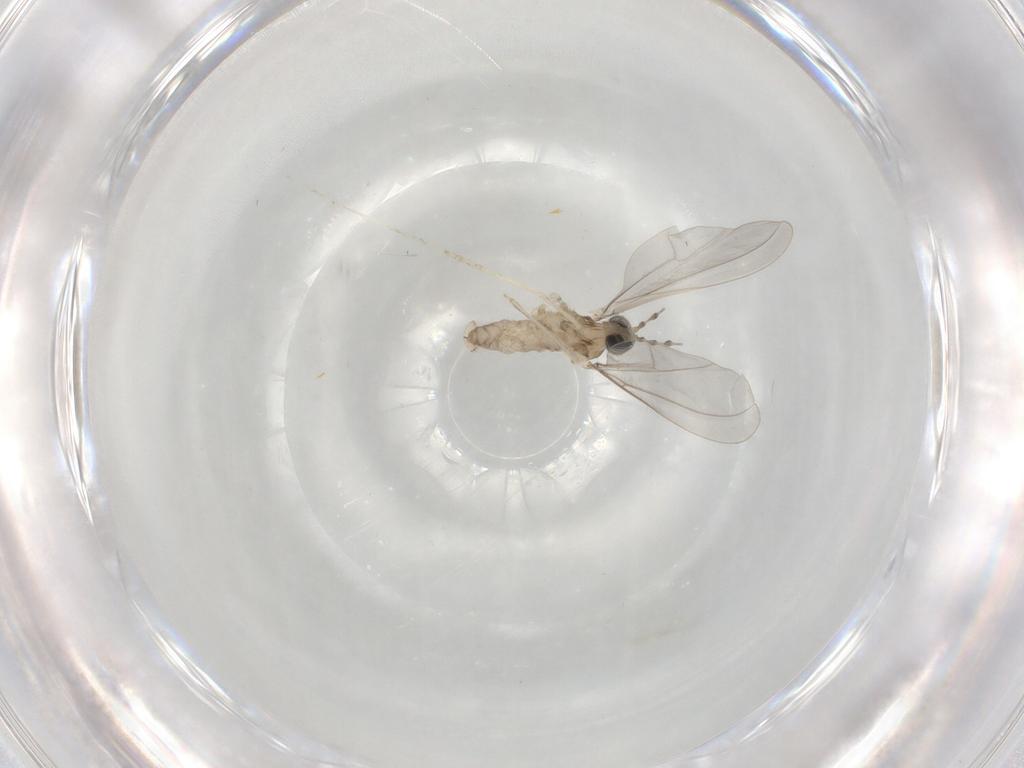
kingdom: Animalia
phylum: Arthropoda
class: Insecta
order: Diptera
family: Cecidomyiidae
